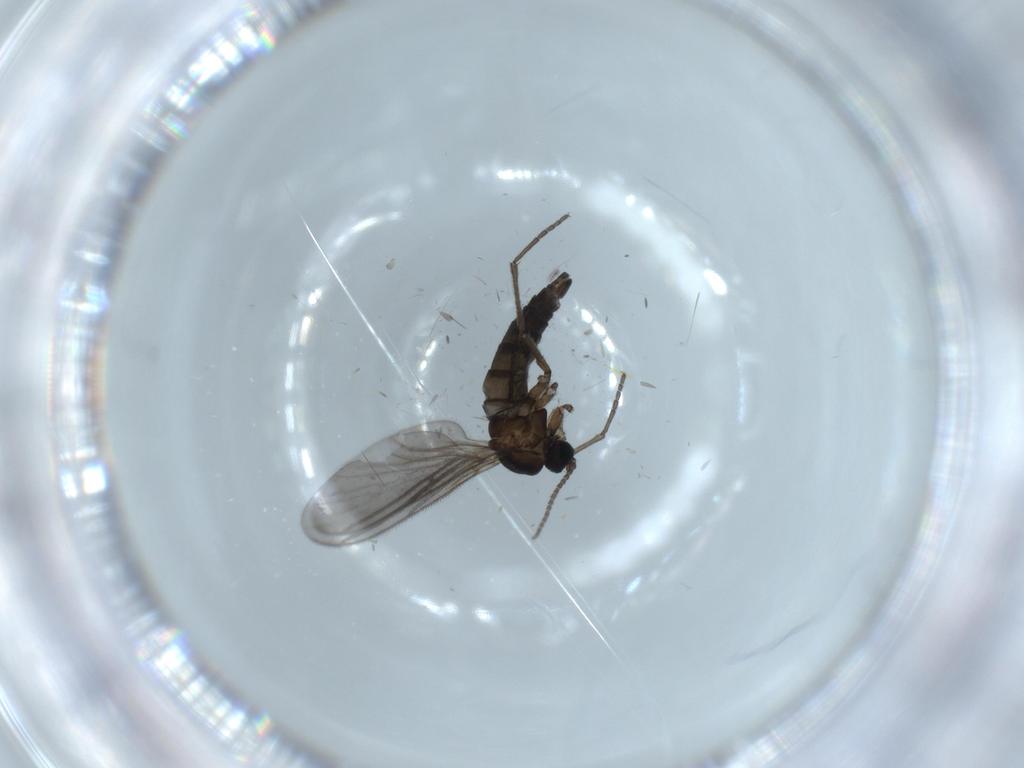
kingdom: Animalia
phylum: Arthropoda
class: Insecta
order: Diptera
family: Sciaridae
